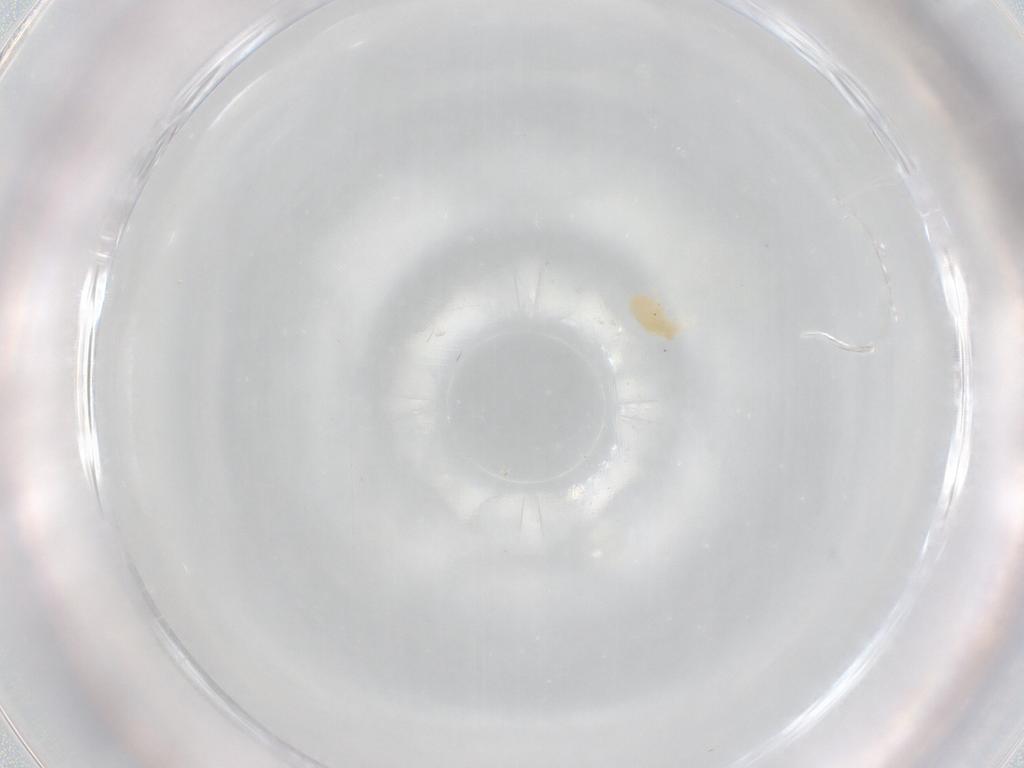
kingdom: Animalia
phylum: Arthropoda
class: Arachnida
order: Trombidiformes
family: Eupodidae
